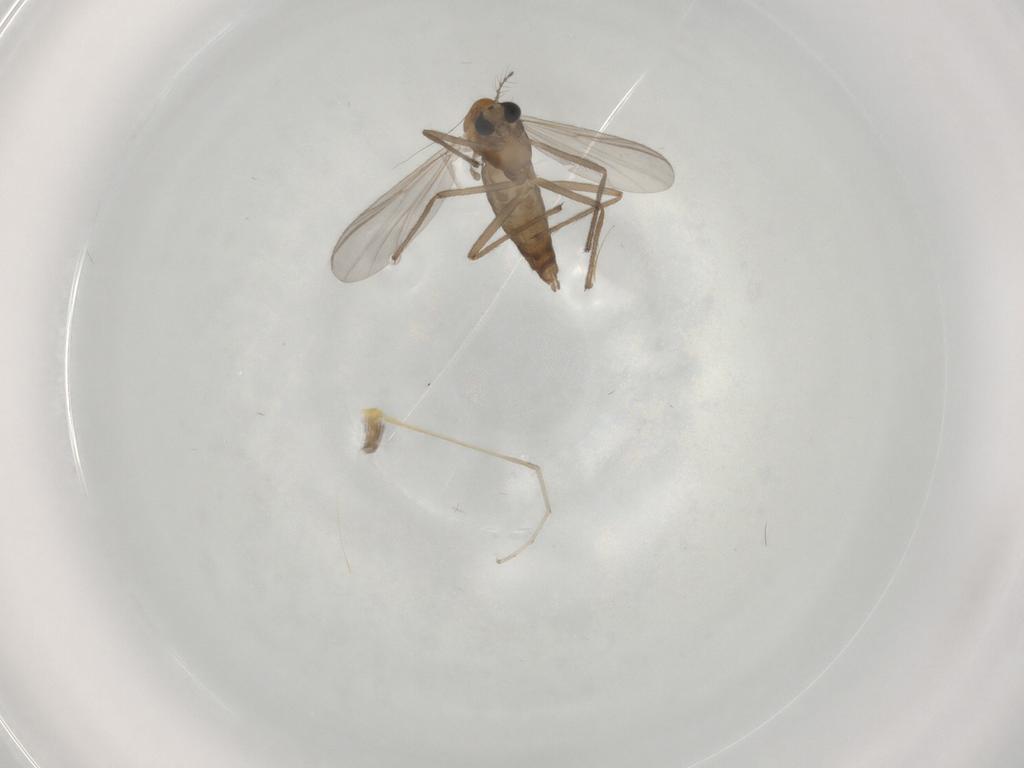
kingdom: Animalia
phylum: Arthropoda
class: Insecta
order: Diptera
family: Chironomidae
